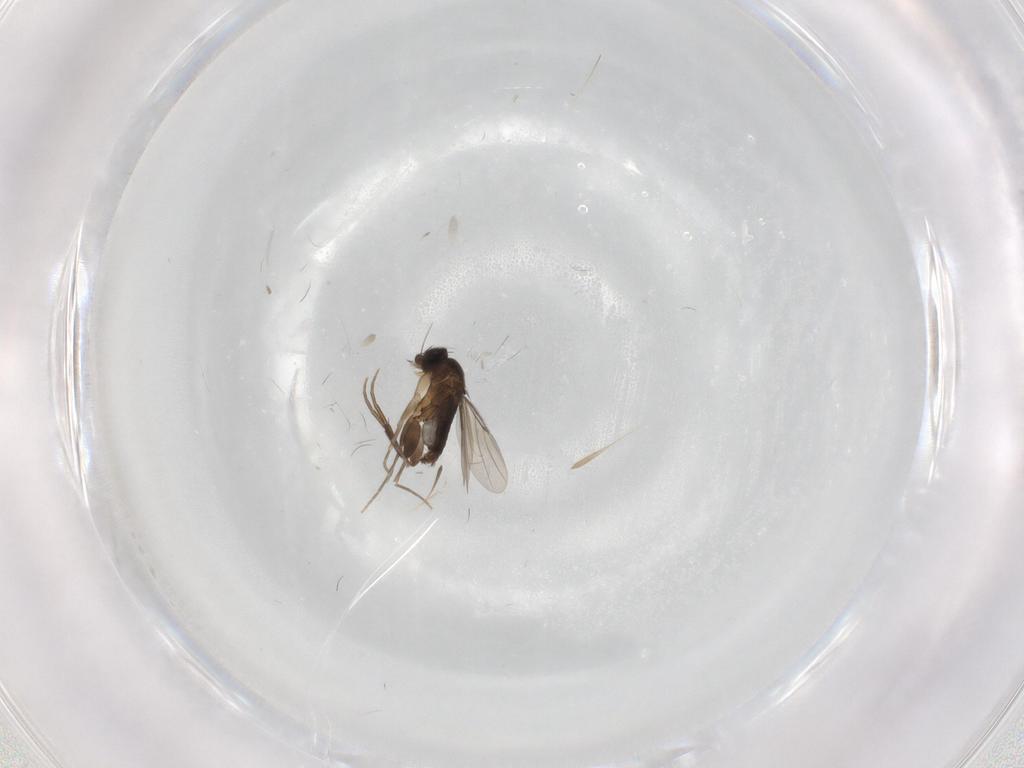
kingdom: Animalia
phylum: Arthropoda
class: Insecta
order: Diptera
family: Phoridae
